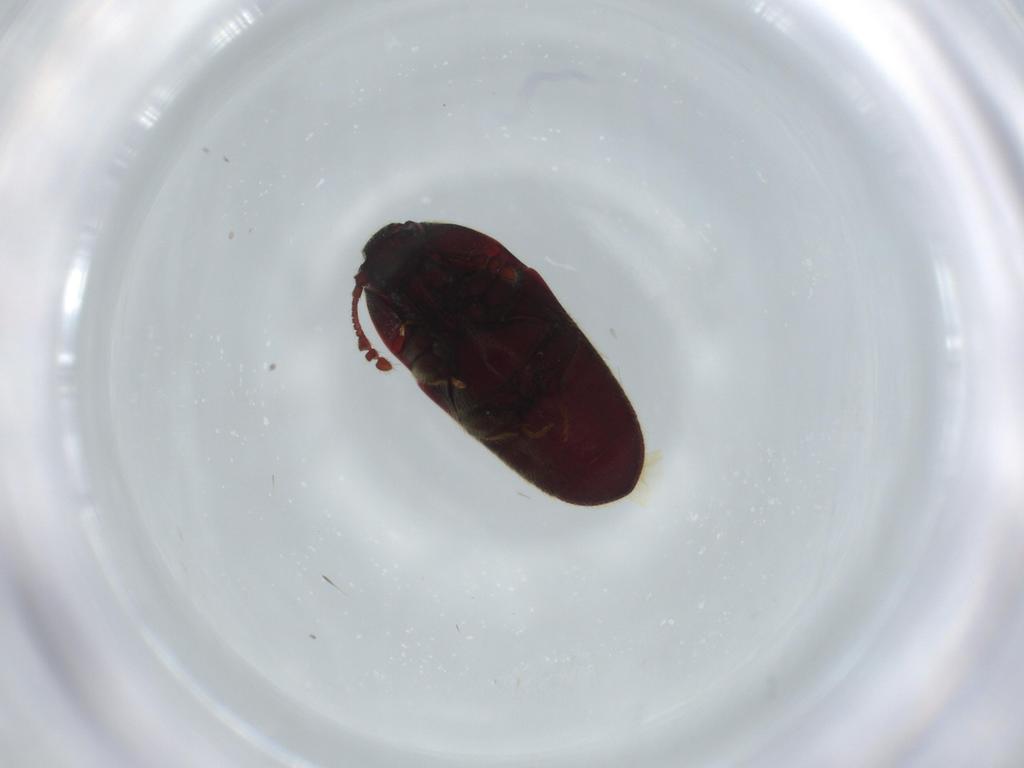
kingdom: Animalia
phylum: Arthropoda
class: Insecta
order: Coleoptera
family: Throscidae
